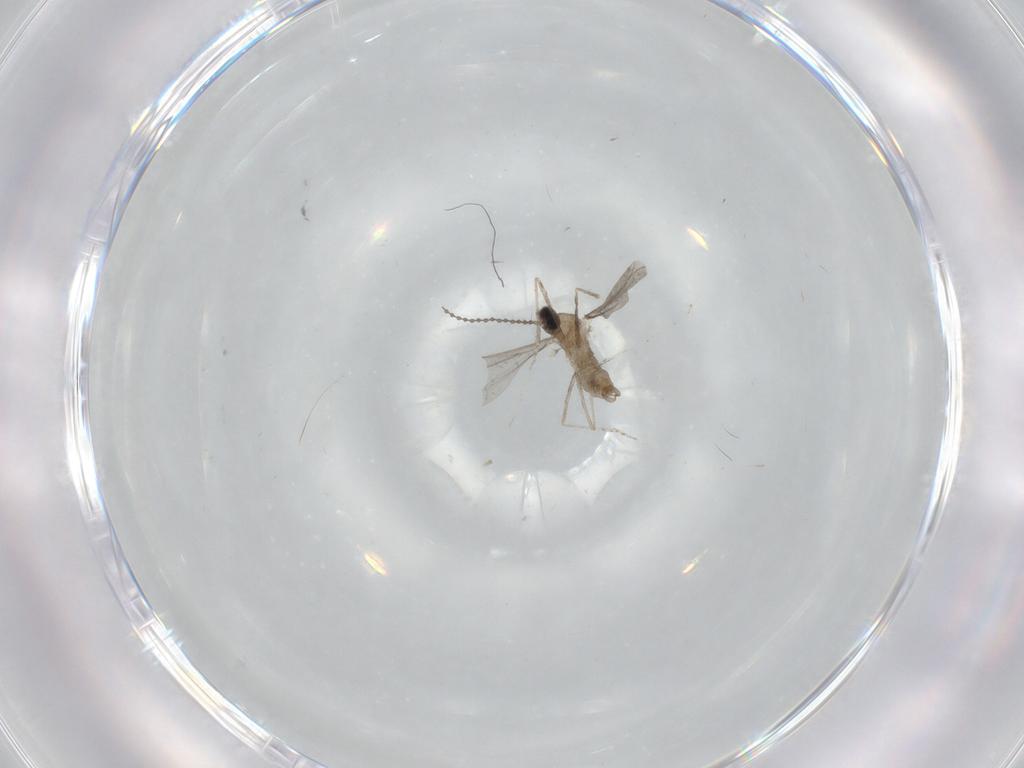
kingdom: Animalia
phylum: Arthropoda
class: Insecta
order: Diptera
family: Cecidomyiidae
